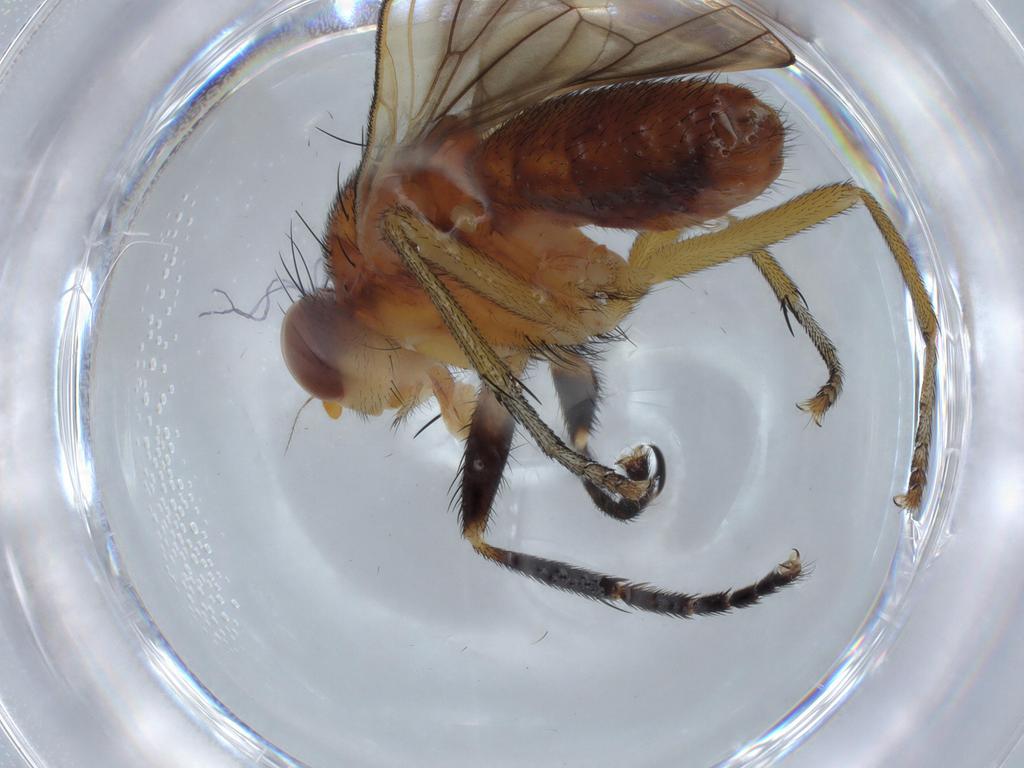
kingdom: Animalia
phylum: Arthropoda
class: Insecta
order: Diptera
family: Hybotidae
